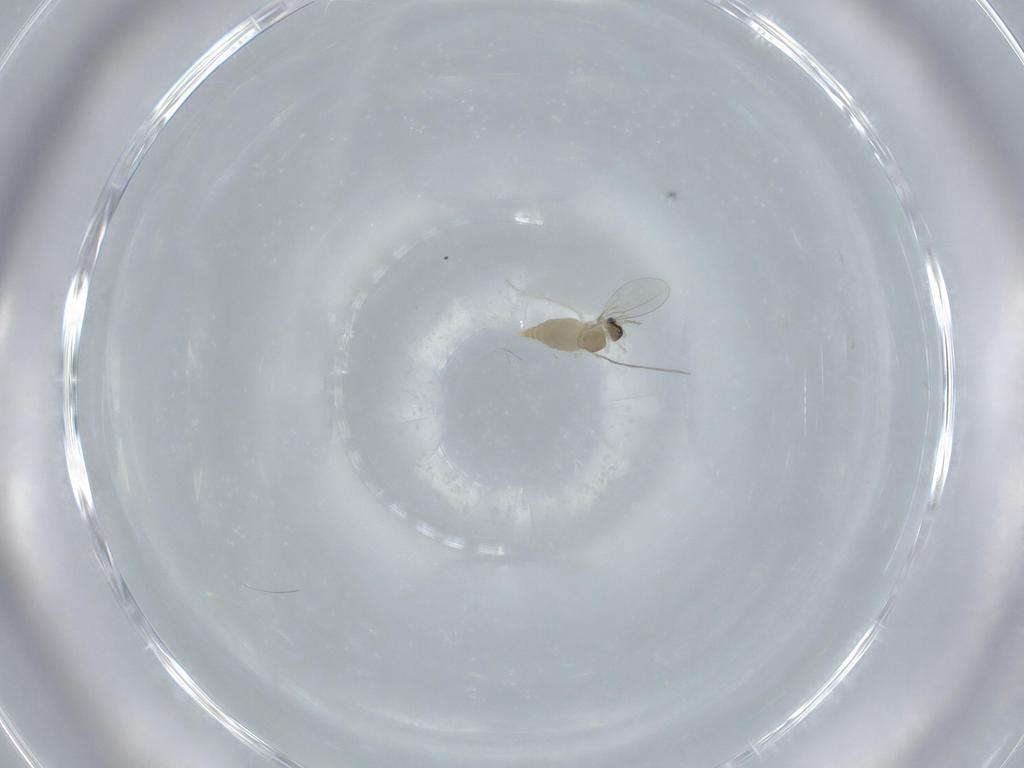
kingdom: Animalia
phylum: Arthropoda
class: Insecta
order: Diptera
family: Cecidomyiidae
